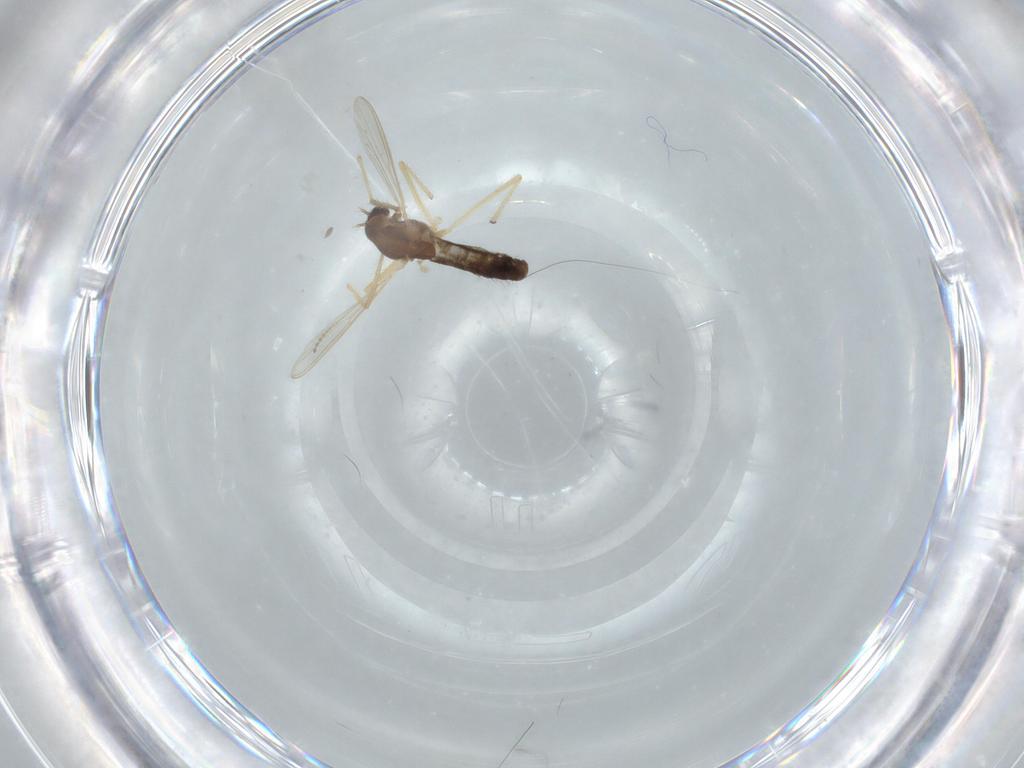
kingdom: Animalia
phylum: Arthropoda
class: Insecta
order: Diptera
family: Chironomidae
